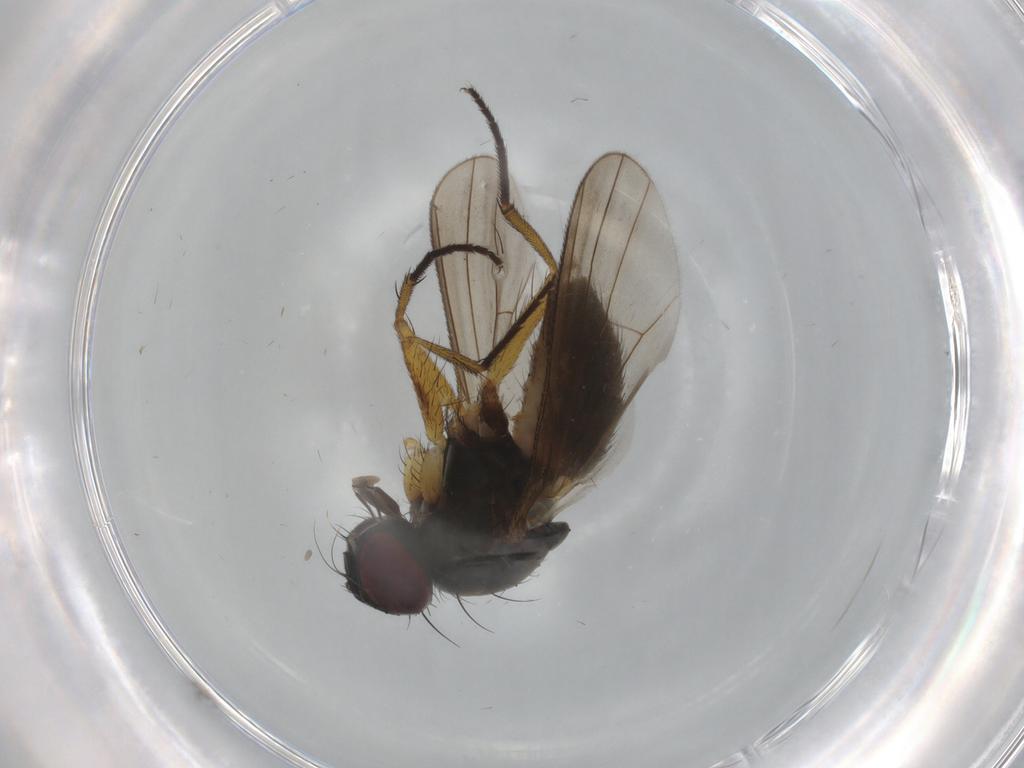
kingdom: Animalia
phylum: Arthropoda
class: Insecta
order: Diptera
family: Muscidae
